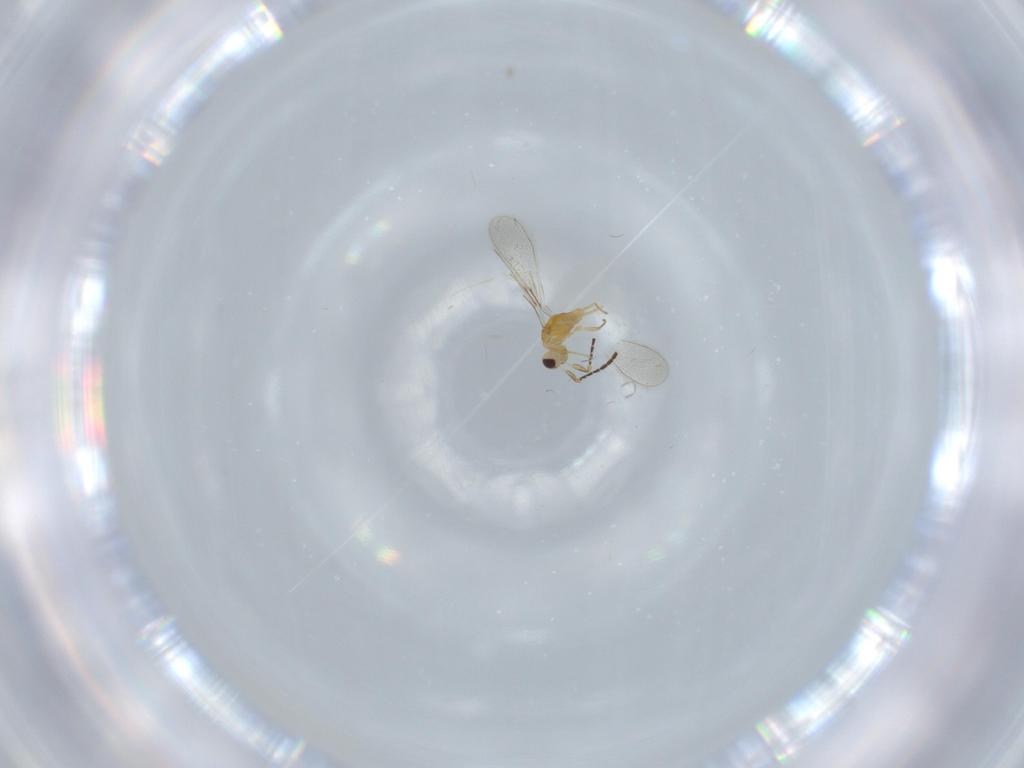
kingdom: Animalia
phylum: Arthropoda
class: Insecta
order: Hymenoptera
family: Mymaridae
